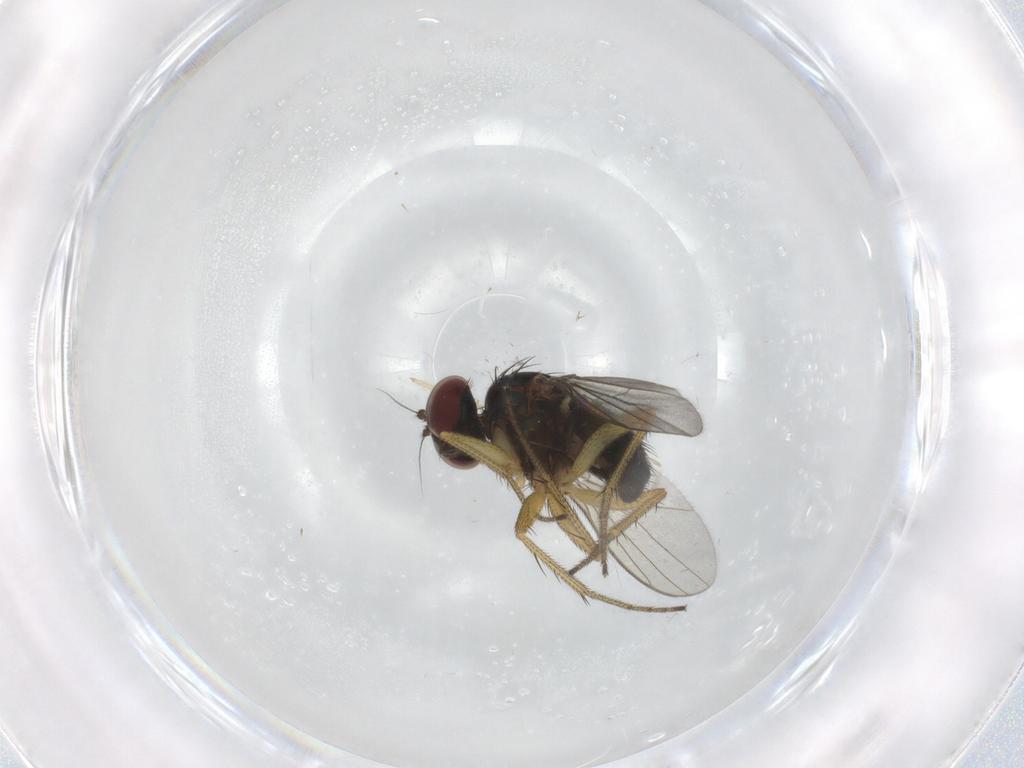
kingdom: Animalia
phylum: Arthropoda
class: Insecta
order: Diptera
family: Dolichopodidae
